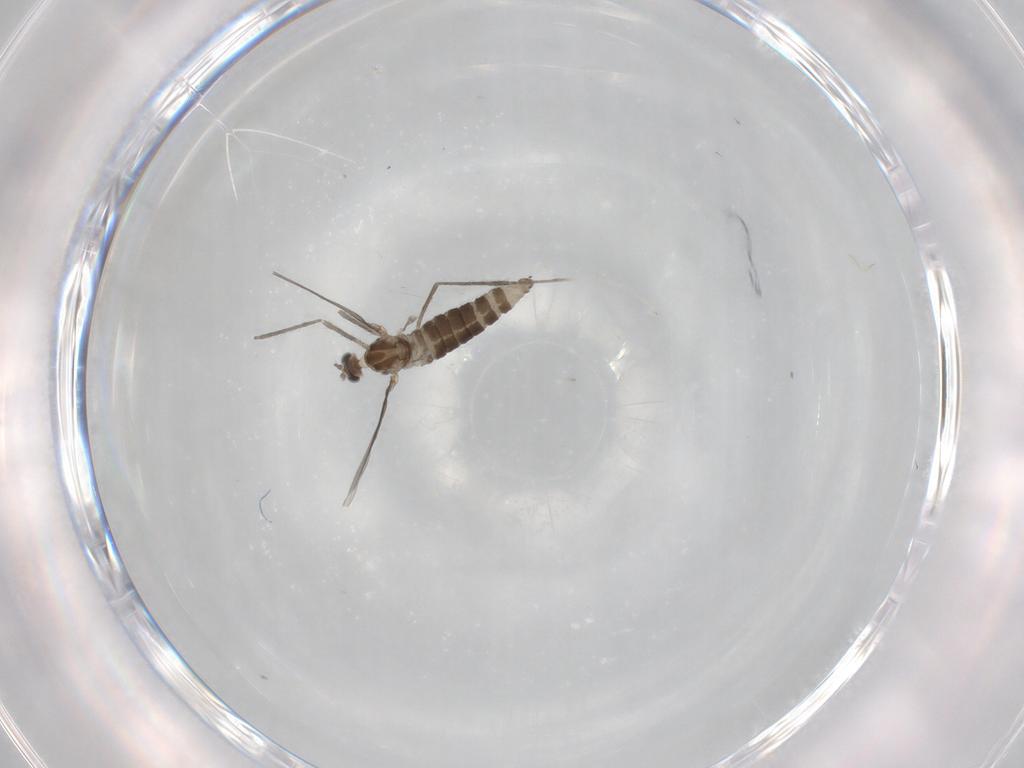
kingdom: Animalia
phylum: Arthropoda
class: Insecta
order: Diptera
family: Cecidomyiidae
